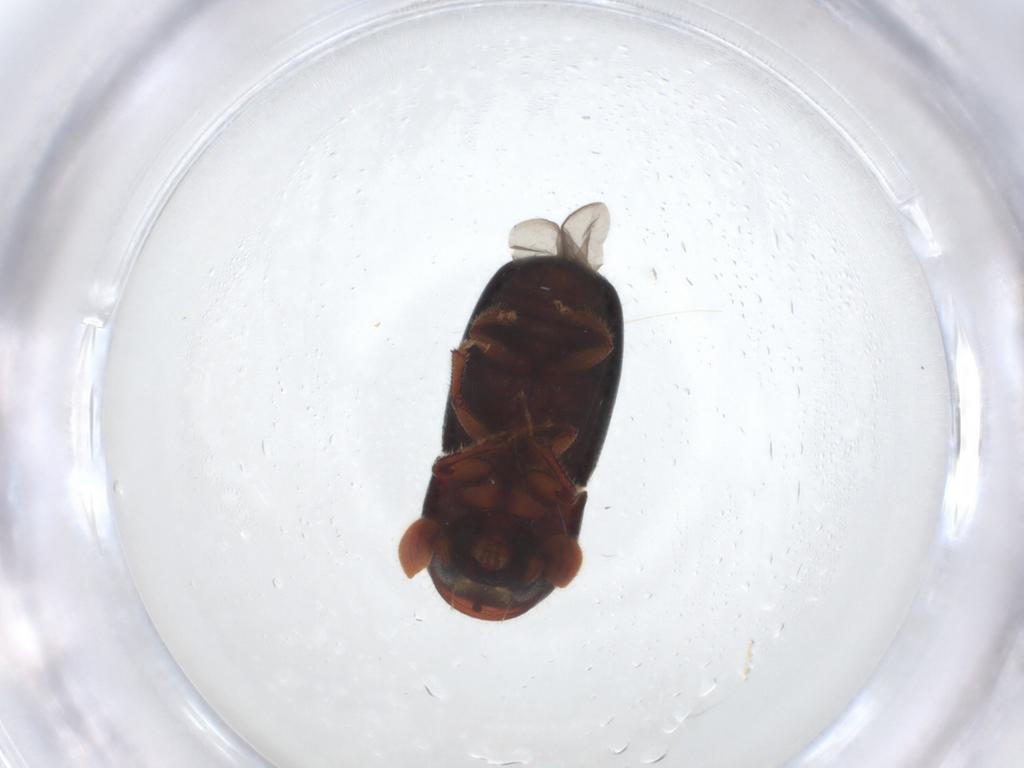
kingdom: Animalia
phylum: Arthropoda
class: Insecta
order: Coleoptera
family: Curculionidae
